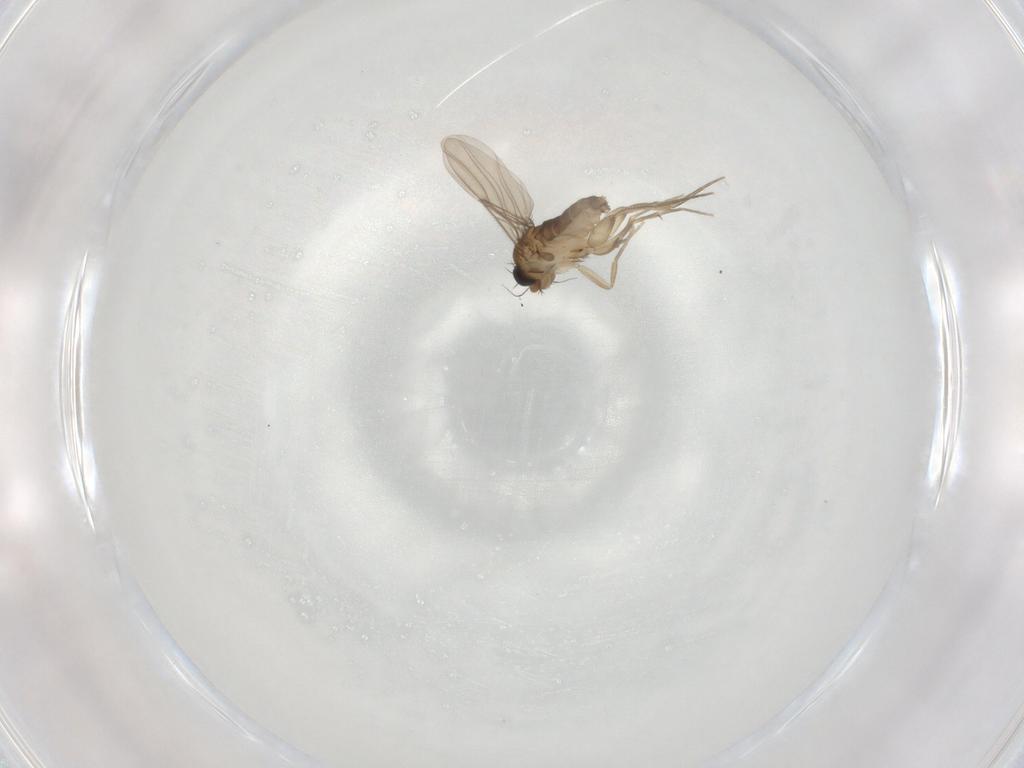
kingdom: Animalia
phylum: Arthropoda
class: Insecta
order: Diptera
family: Phoridae
